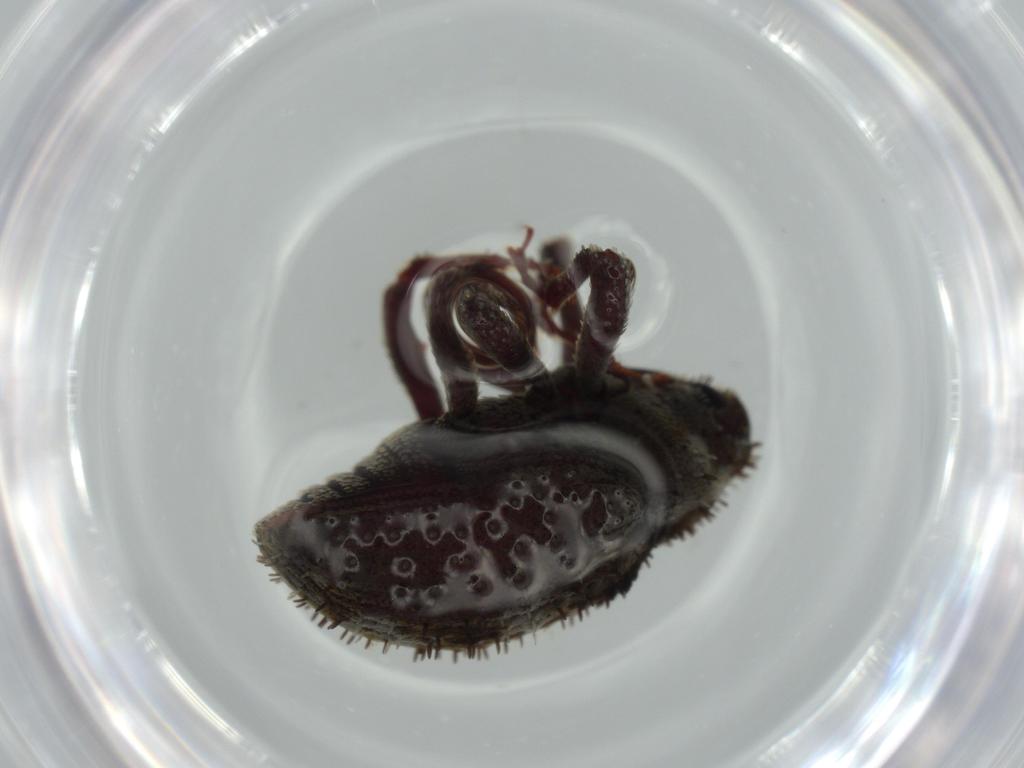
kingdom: Animalia
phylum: Arthropoda
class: Insecta
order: Coleoptera
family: Curculionidae
